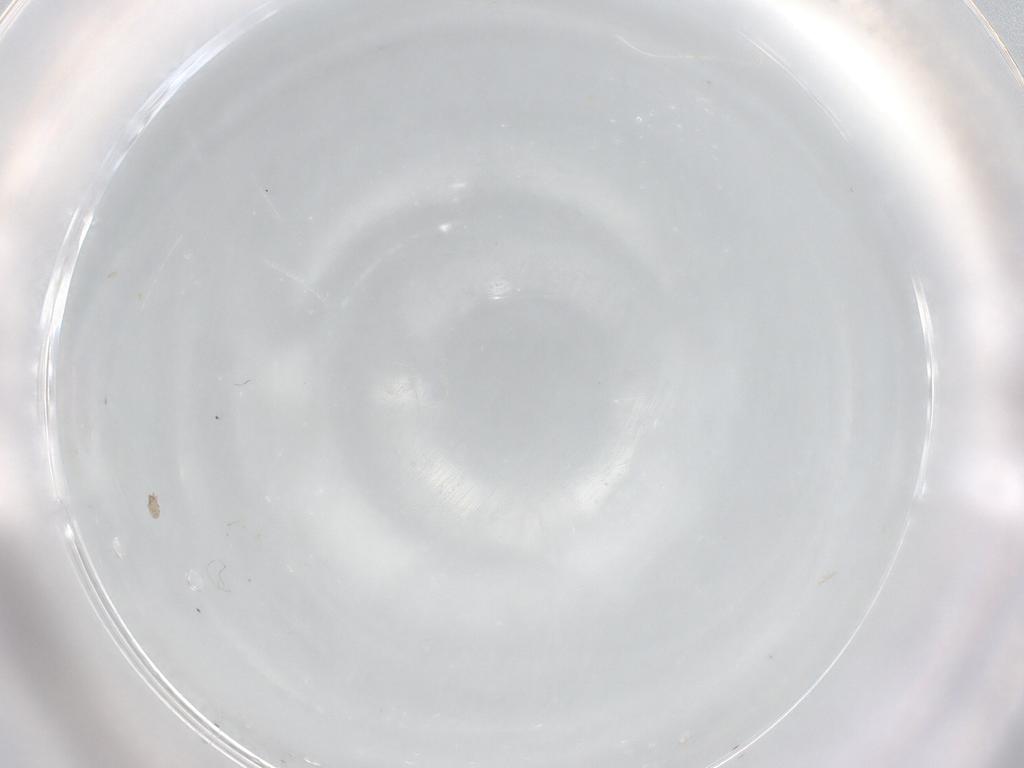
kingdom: Animalia
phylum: Arthropoda
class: Arachnida
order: Sarcoptiformes
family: Tectocepheidae
